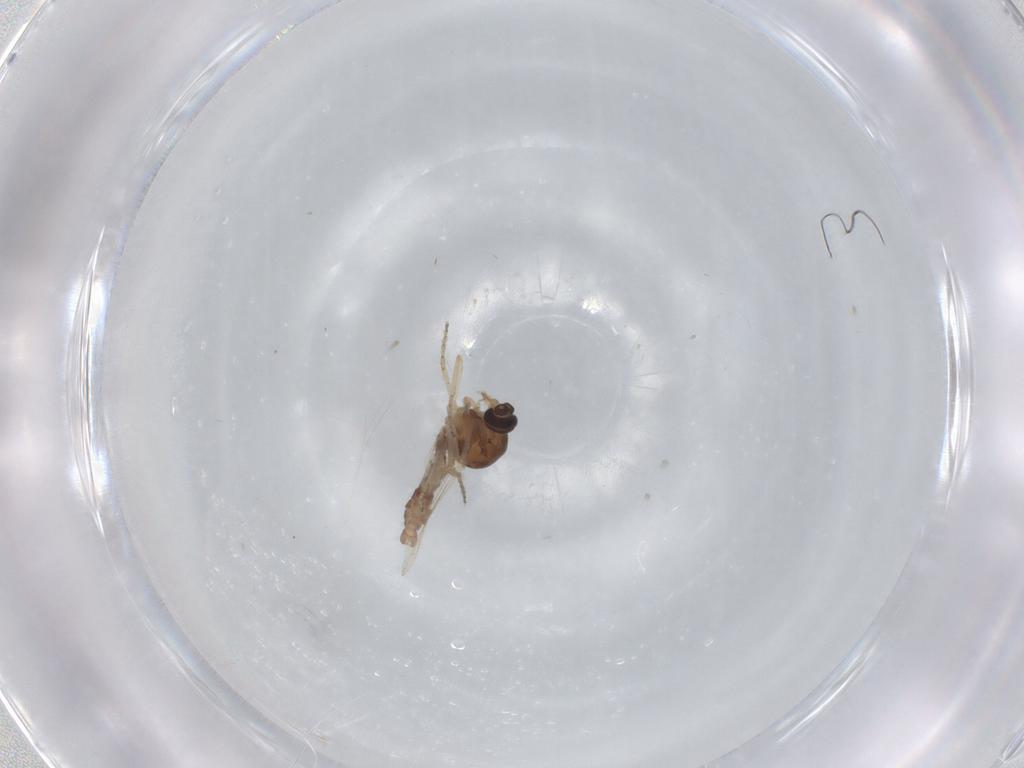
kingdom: Animalia
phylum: Arthropoda
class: Insecta
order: Diptera
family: Ceratopogonidae
